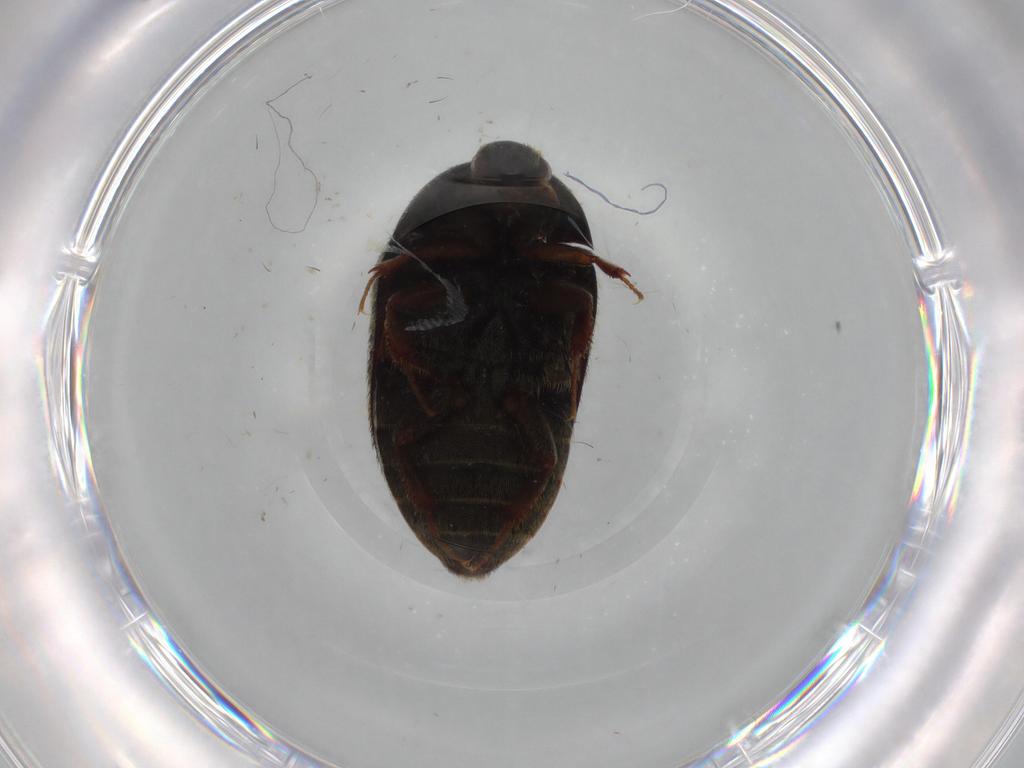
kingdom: Animalia
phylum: Arthropoda
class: Insecta
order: Coleoptera
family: Dermestidae
